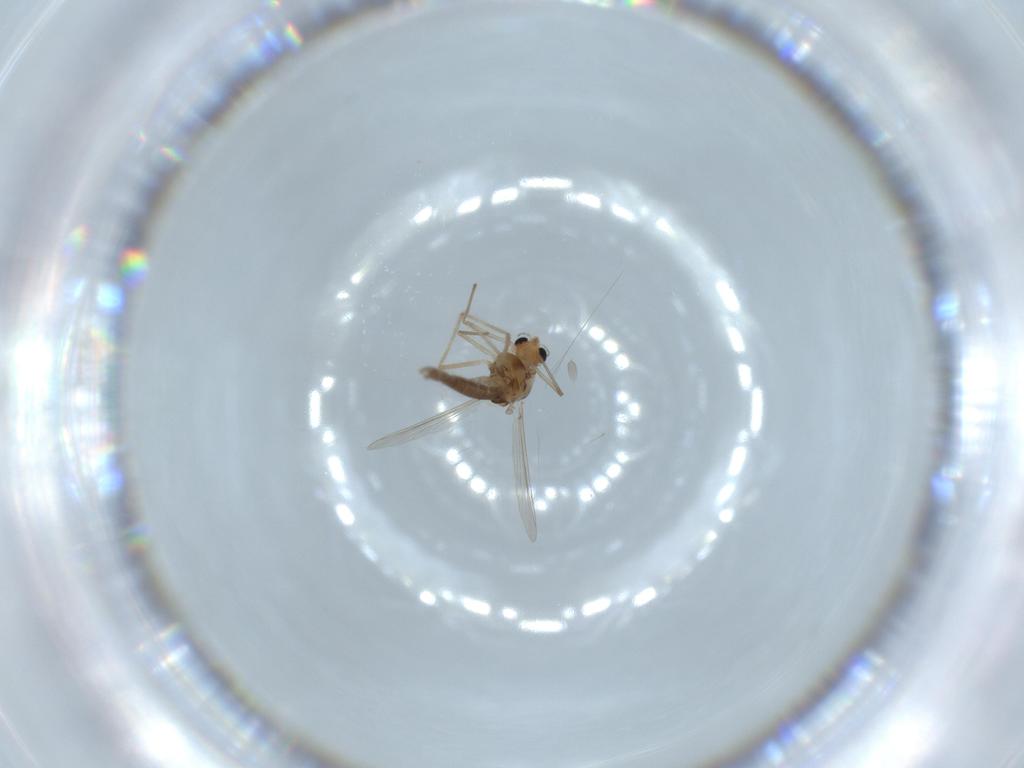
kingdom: Animalia
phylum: Arthropoda
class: Insecta
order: Diptera
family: Chironomidae
